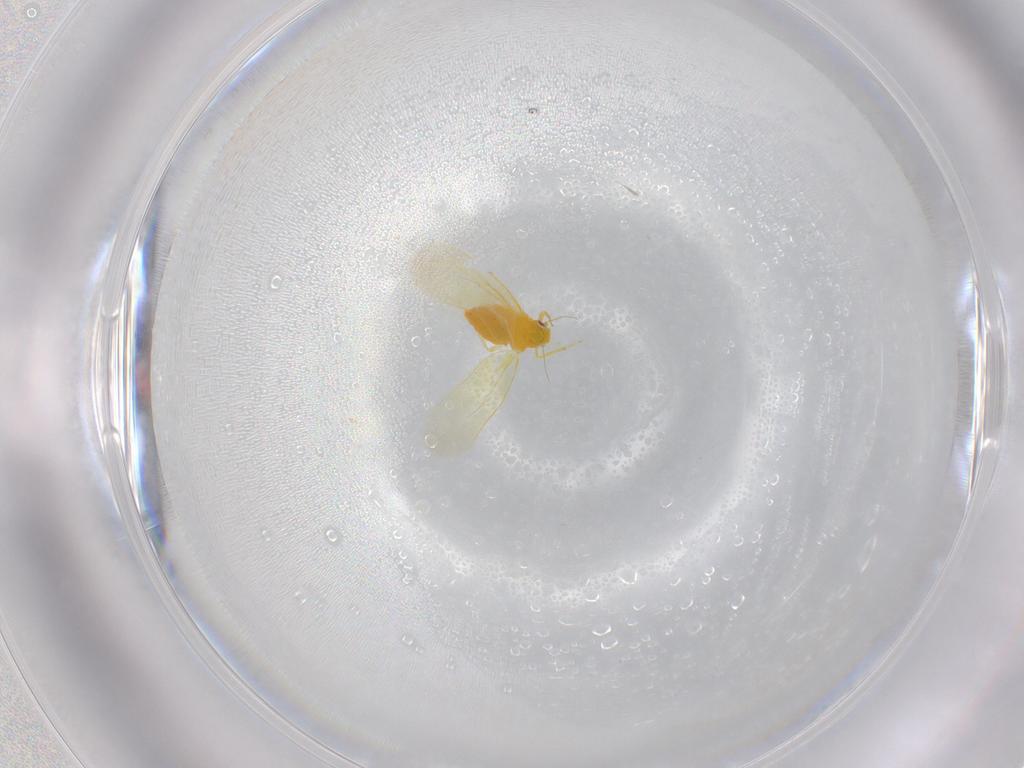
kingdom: Animalia
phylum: Arthropoda
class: Insecta
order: Hemiptera
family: Aleyrodidae
